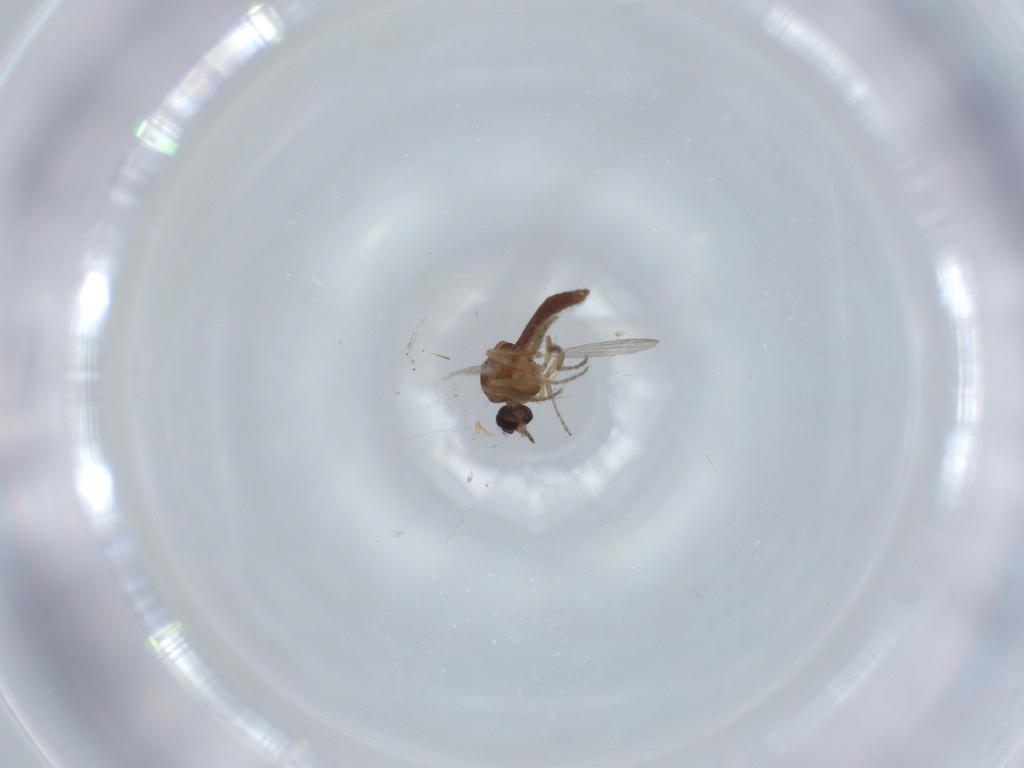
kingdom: Animalia
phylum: Arthropoda
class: Insecta
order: Diptera
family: Ceratopogonidae
